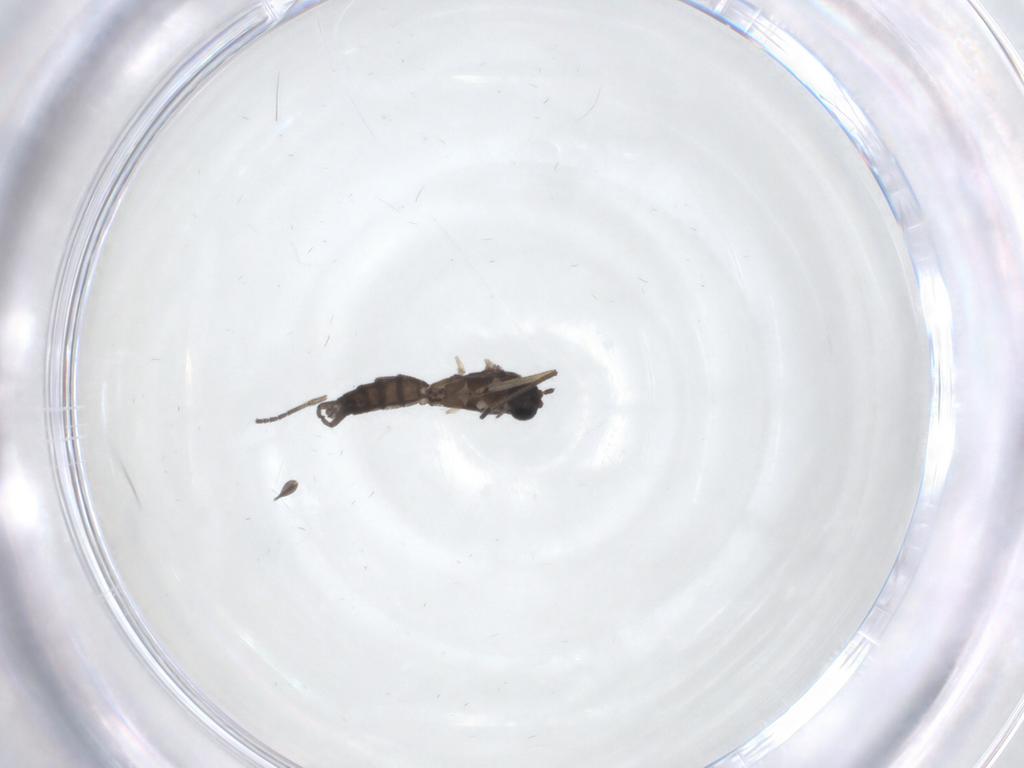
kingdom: Animalia
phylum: Arthropoda
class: Insecta
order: Diptera
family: Sciaridae
